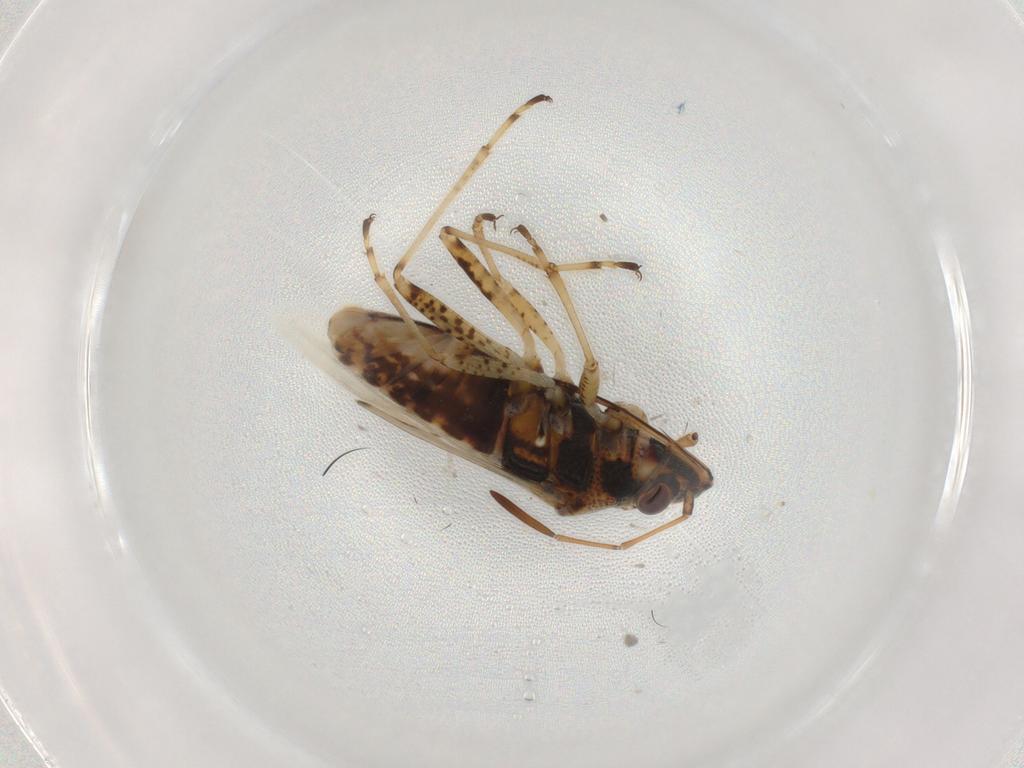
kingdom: Animalia
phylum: Arthropoda
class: Insecta
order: Hemiptera
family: Lygaeidae
